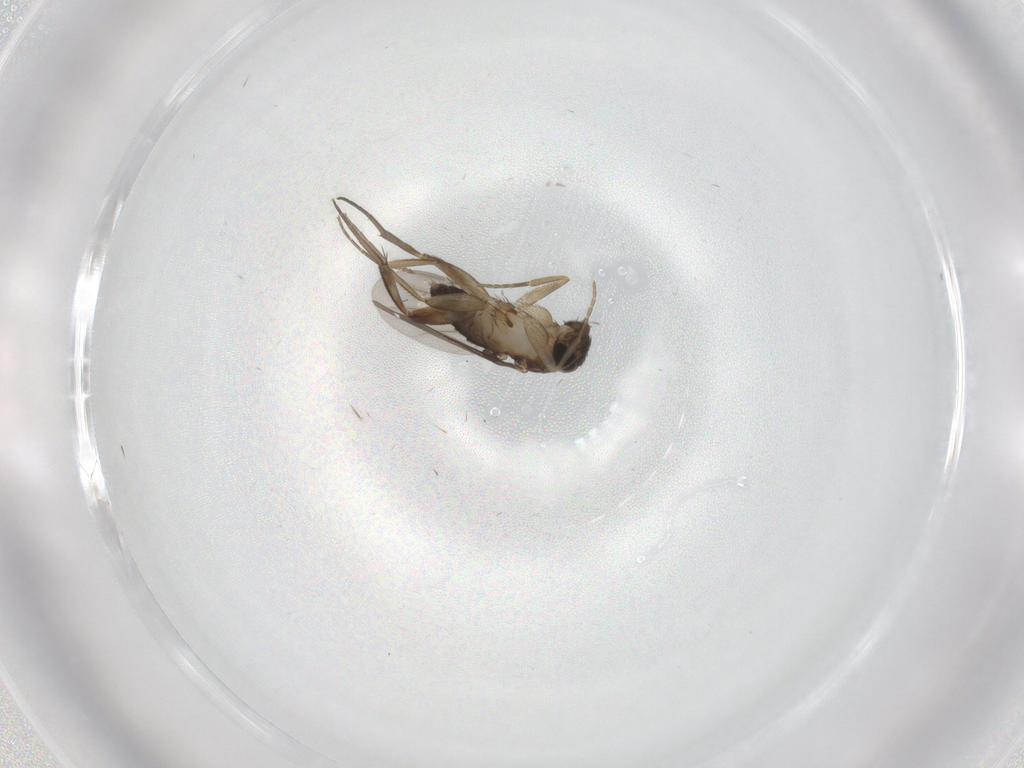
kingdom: Animalia
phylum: Arthropoda
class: Insecta
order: Diptera
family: Phoridae
